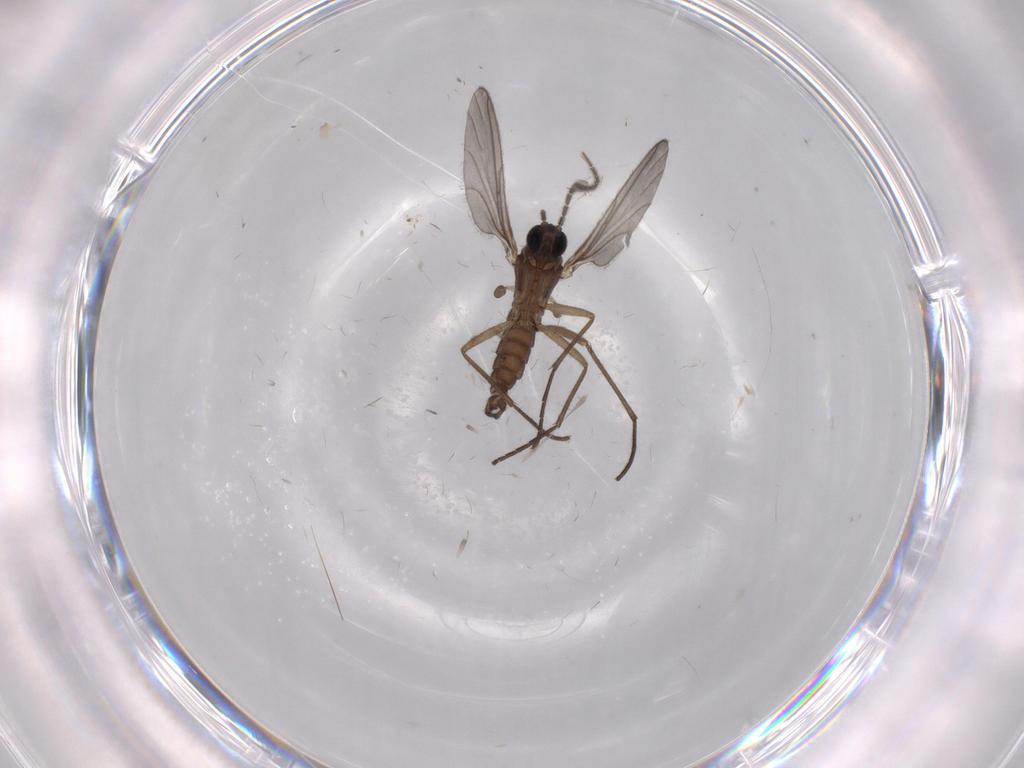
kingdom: Animalia
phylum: Arthropoda
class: Insecta
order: Diptera
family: Sciaridae
